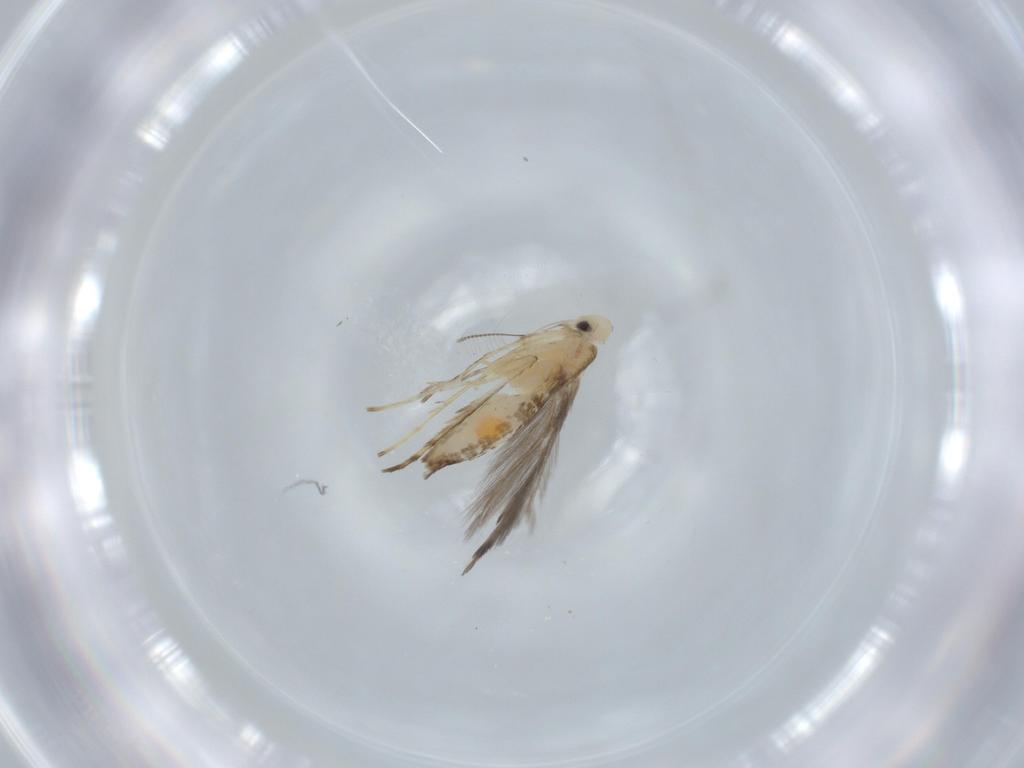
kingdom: Animalia
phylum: Arthropoda
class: Insecta
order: Lepidoptera
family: Gracillariidae
